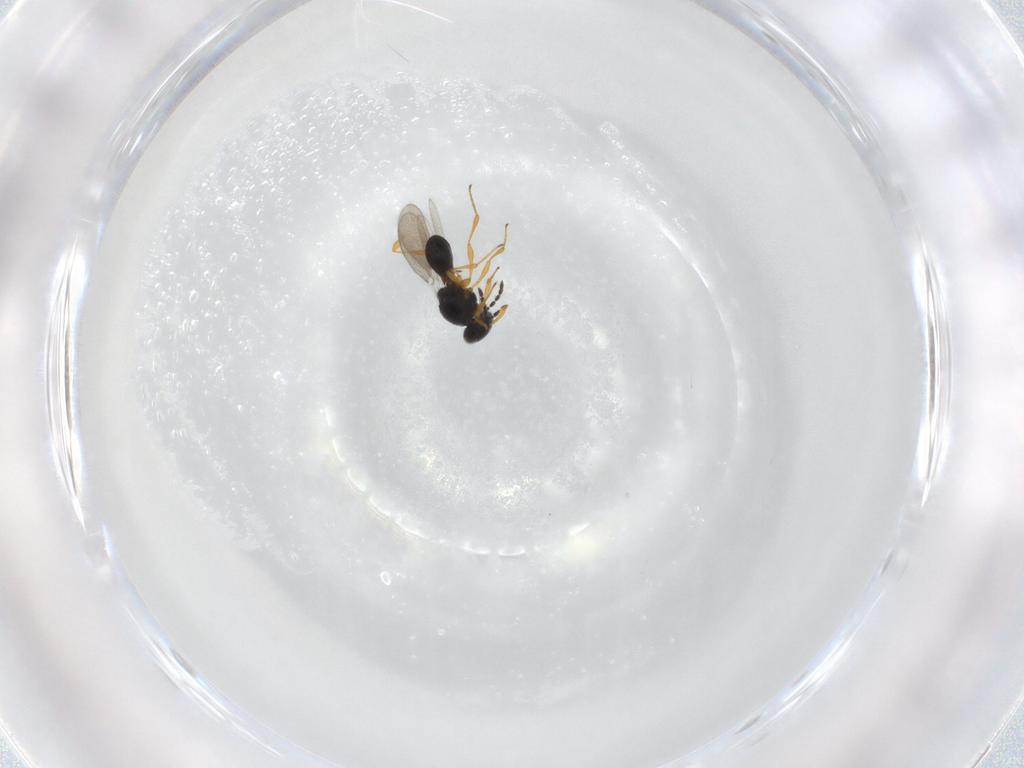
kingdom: Animalia
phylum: Arthropoda
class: Insecta
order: Hymenoptera
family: Platygastridae
